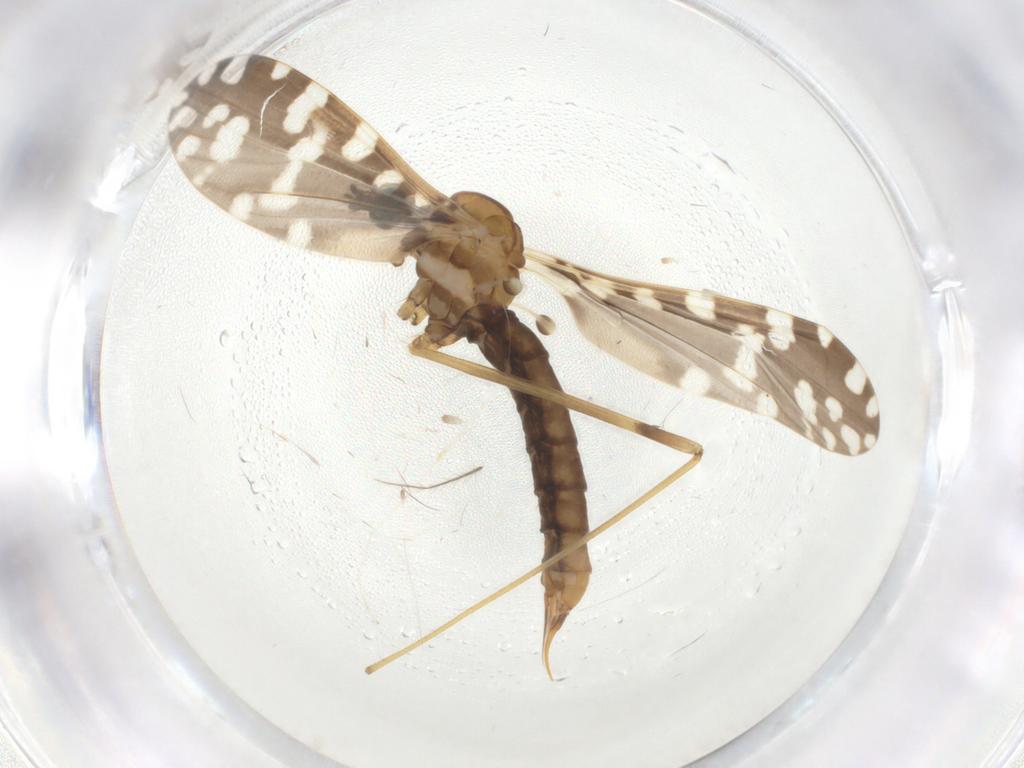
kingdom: Animalia
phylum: Arthropoda
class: Insecta
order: Diptera
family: Limoniidae
